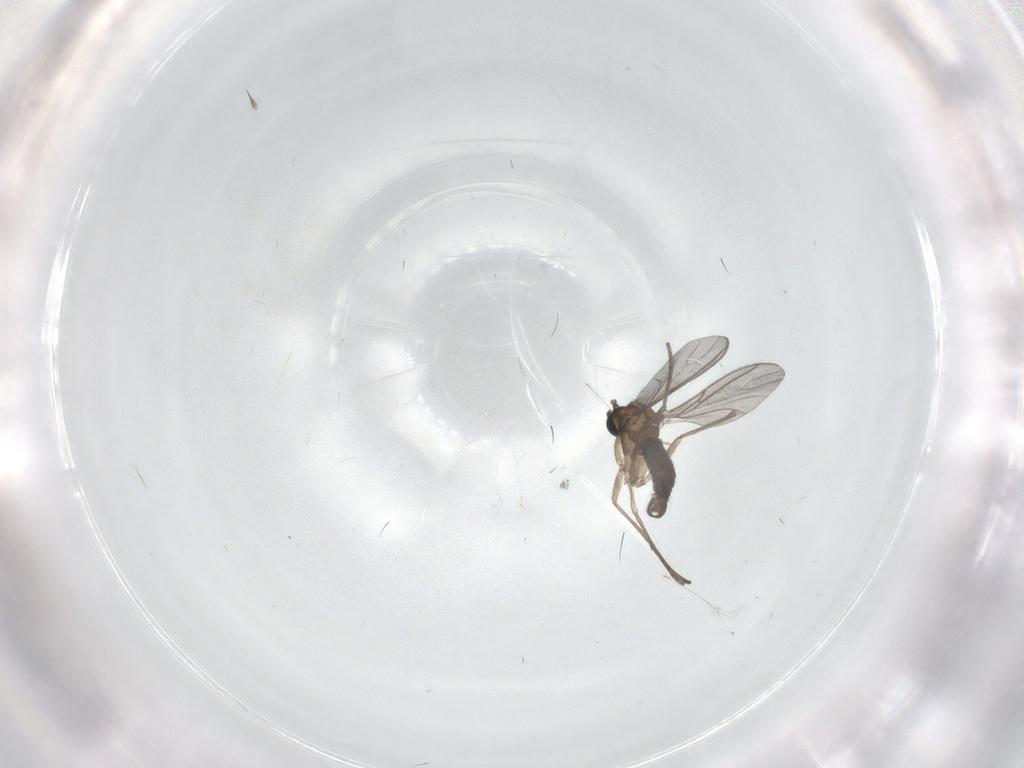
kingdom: Animalia
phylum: Arthropoda
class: Insecta
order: Diptera
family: Sciaridae
